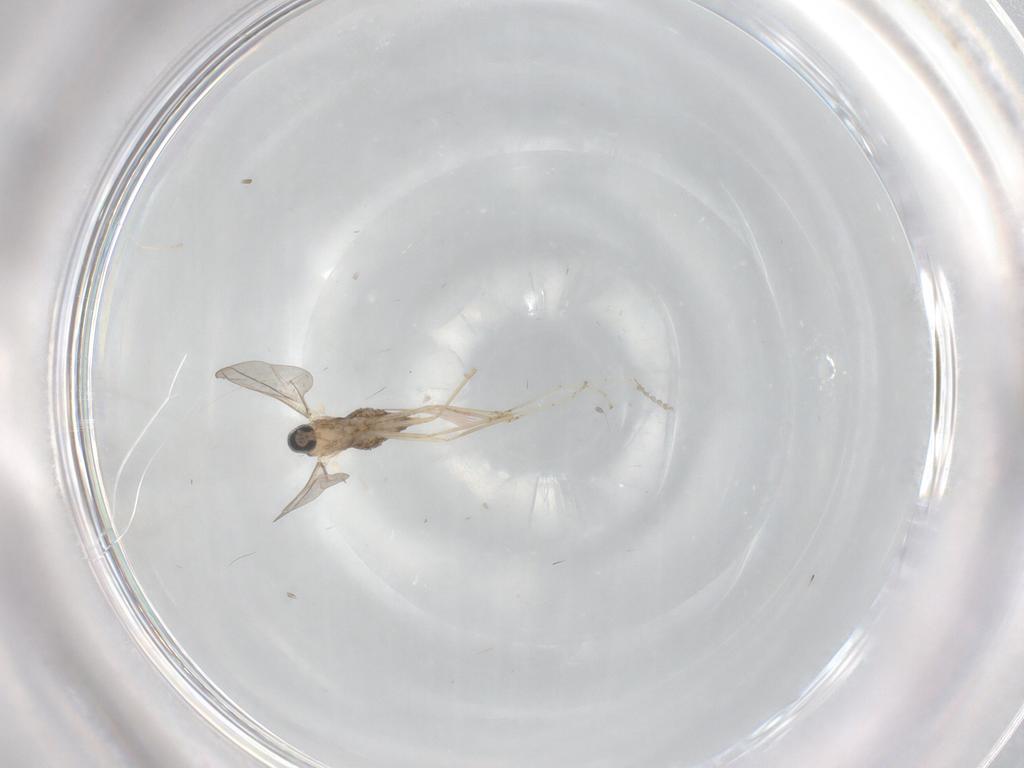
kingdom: Animalia
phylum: Arthropoda
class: Insecta
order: Diptera
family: Cecidomyiidae
